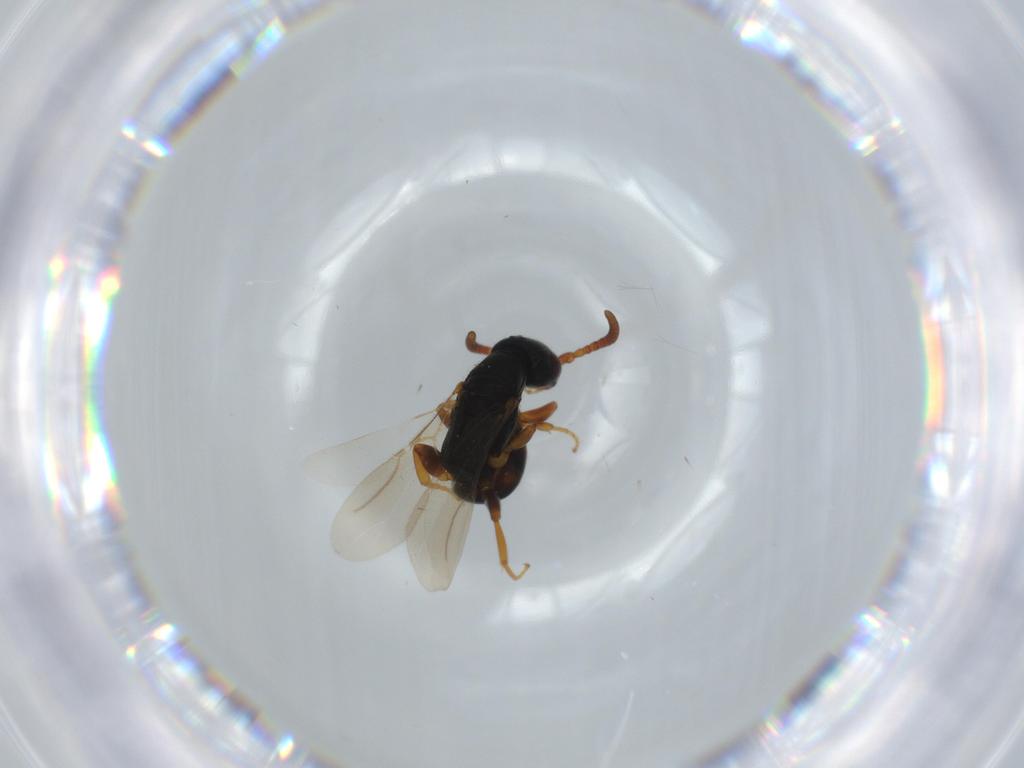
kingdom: Animalia
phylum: Arthropoda
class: Insecta
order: Hymenoptera
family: Bethylidae
